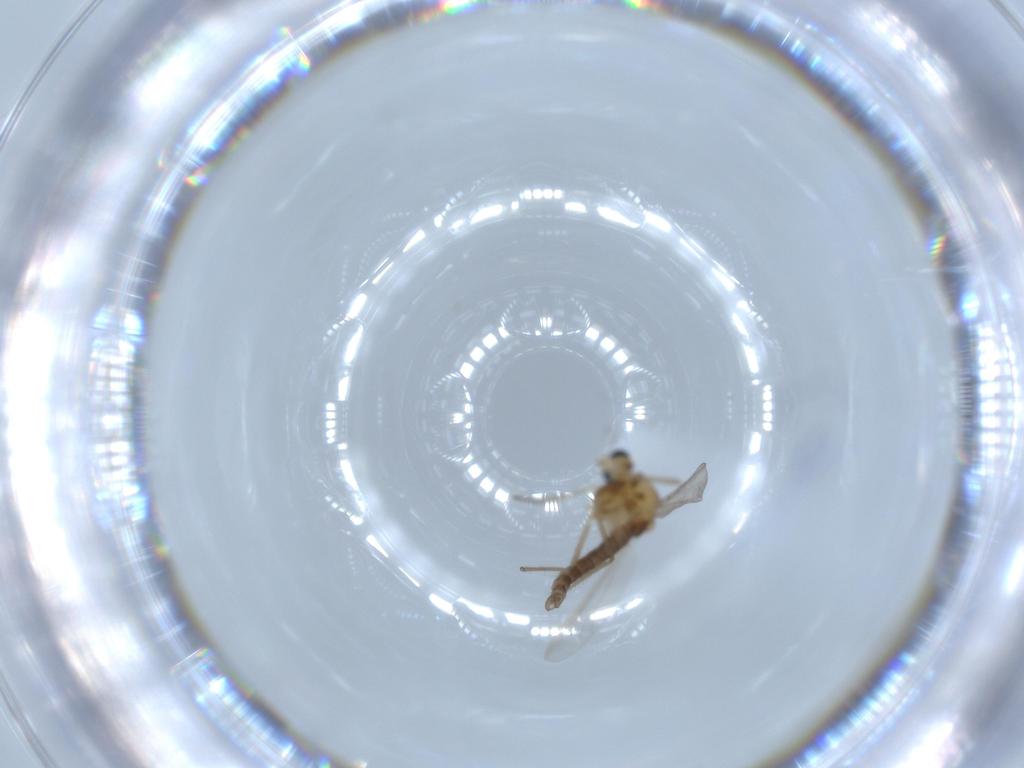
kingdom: Animalia
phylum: Arthropoda
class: Insecta
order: Diptera
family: Chironomidae
